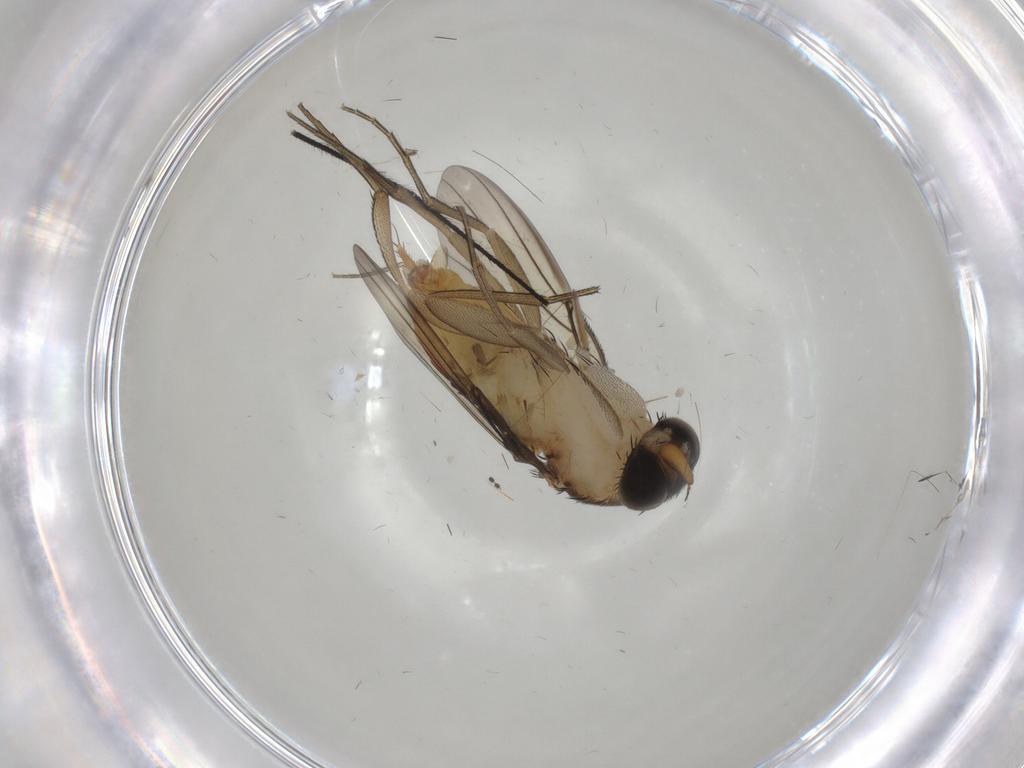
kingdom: Animalia
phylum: Arthropoda
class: Insecta
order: Diptera
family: Phoridae
